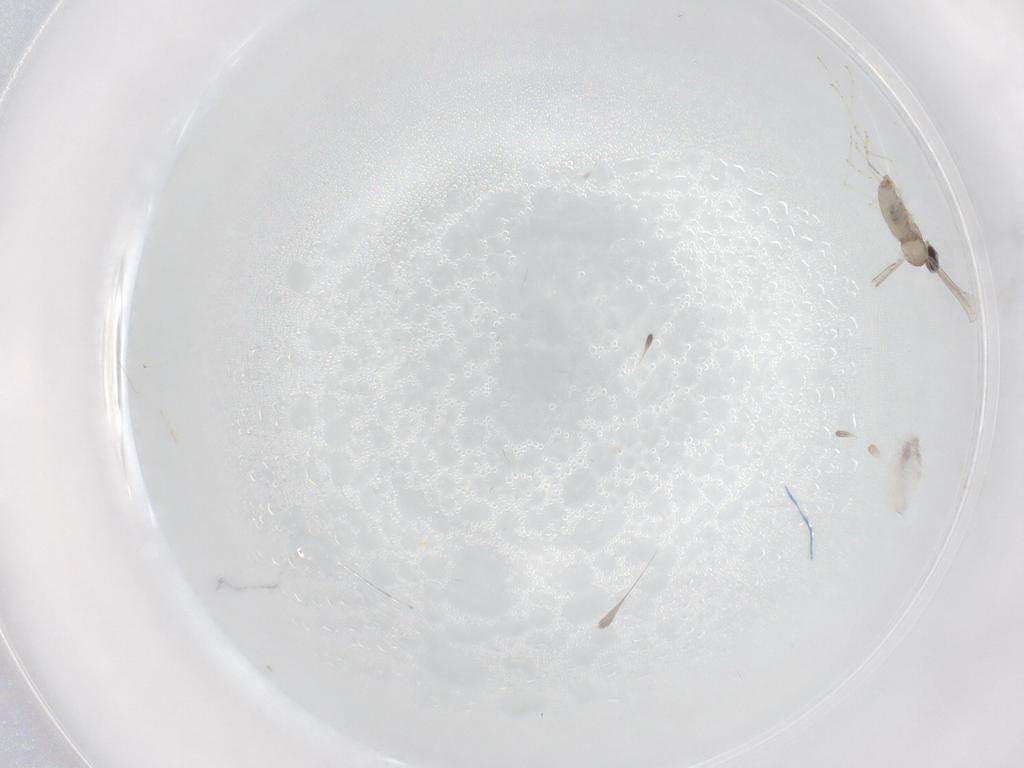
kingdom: Animalia
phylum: Arthropoda
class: Insecta
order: Diptera
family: Cecidomyiidae
